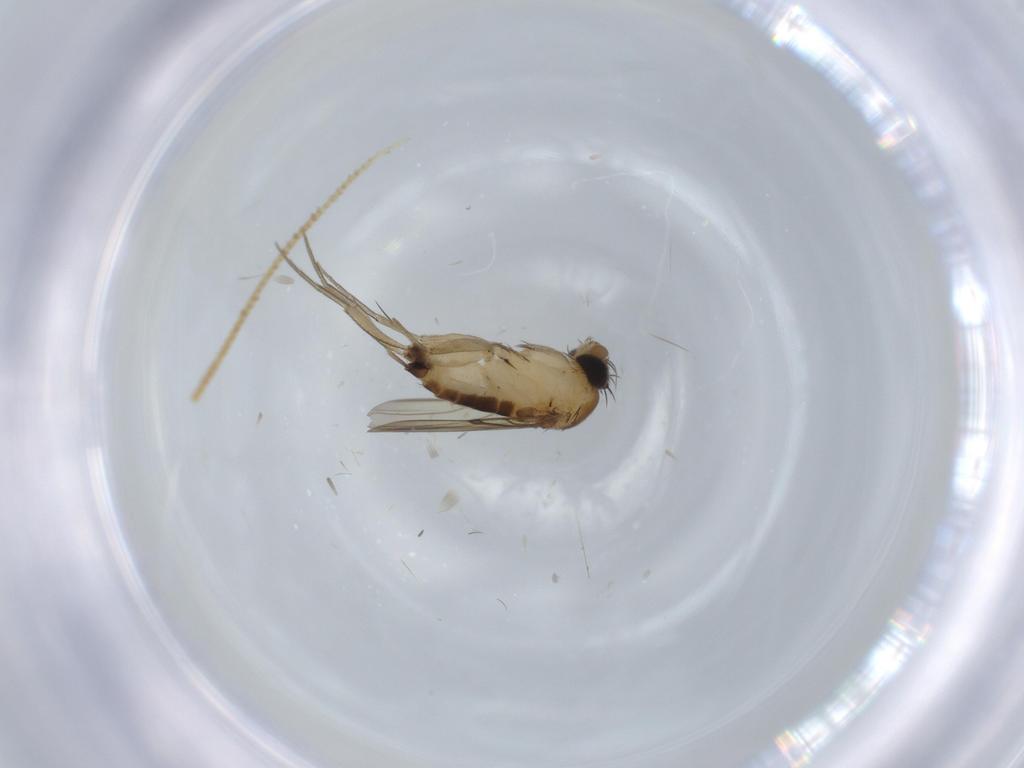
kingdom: Animalia
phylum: Arthropoda
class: Insecta
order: Diptera
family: Phoridae
